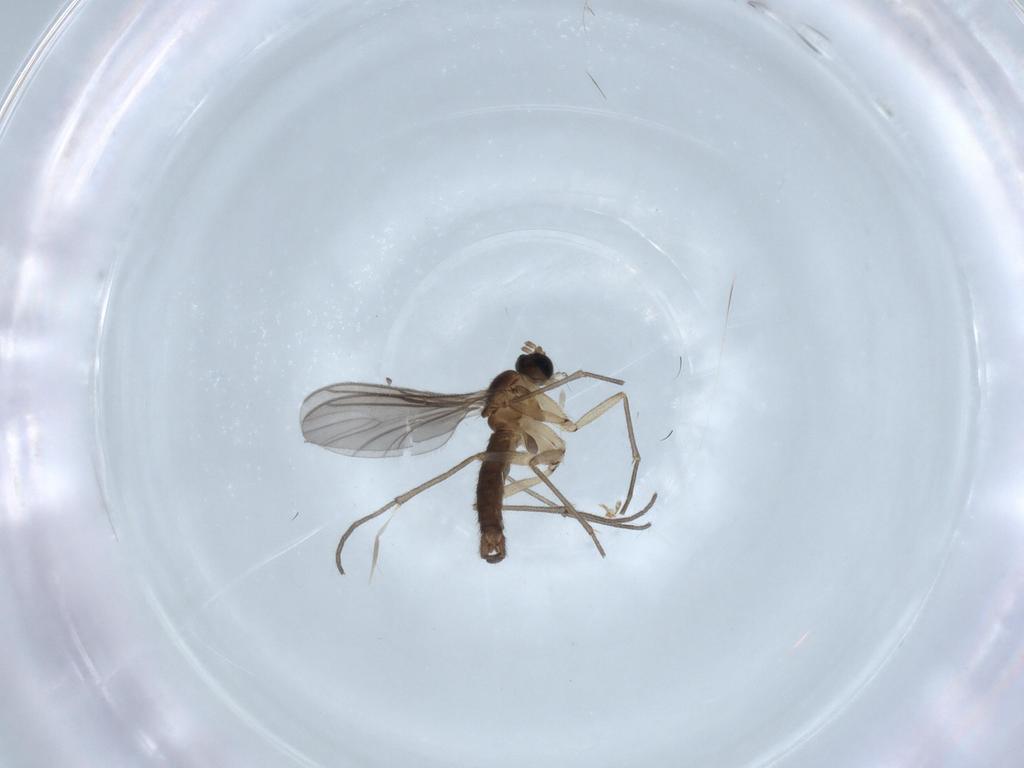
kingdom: Animalia
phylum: Arthropoda
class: Insecta
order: Diptera
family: Sciaridae
